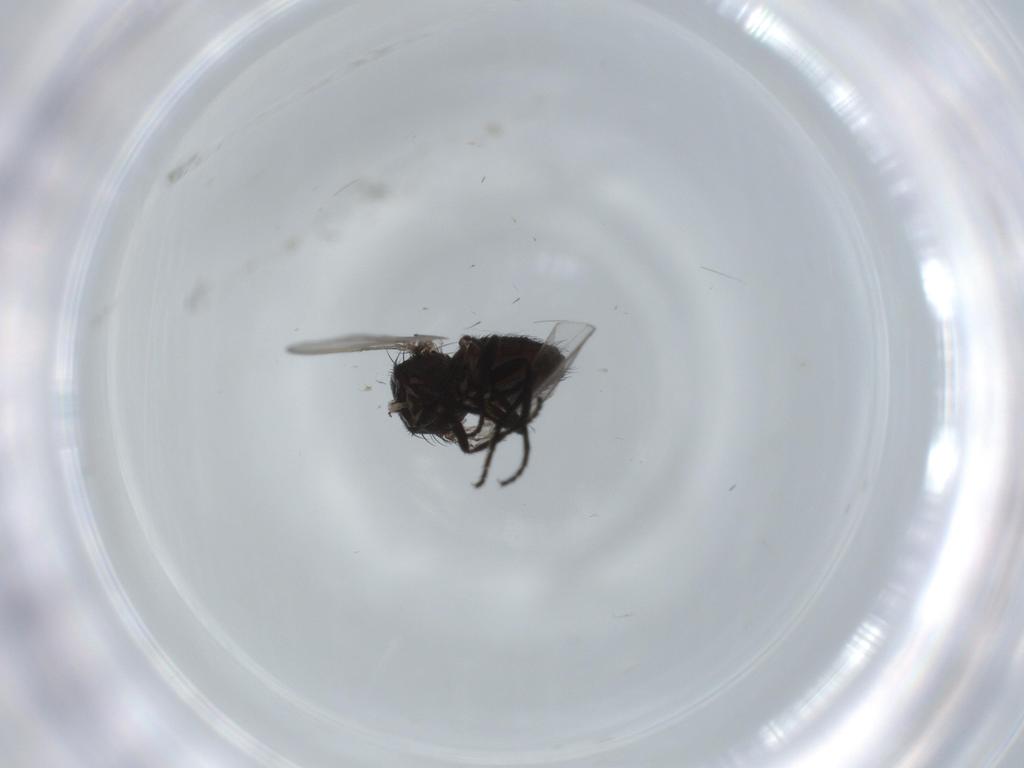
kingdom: Animalia
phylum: Arthropoda
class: Insecta
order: Diptera
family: Milichiidae
